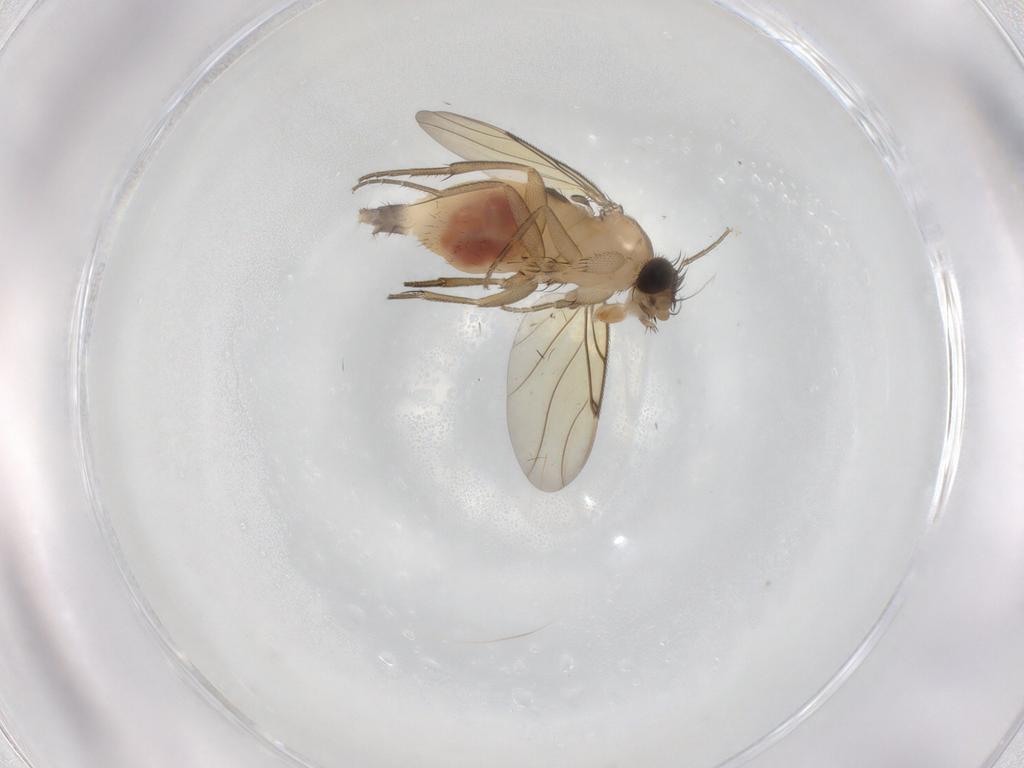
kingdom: Animalia
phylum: Arthropoda
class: Insecta
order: Diptera
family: Tabanidae
